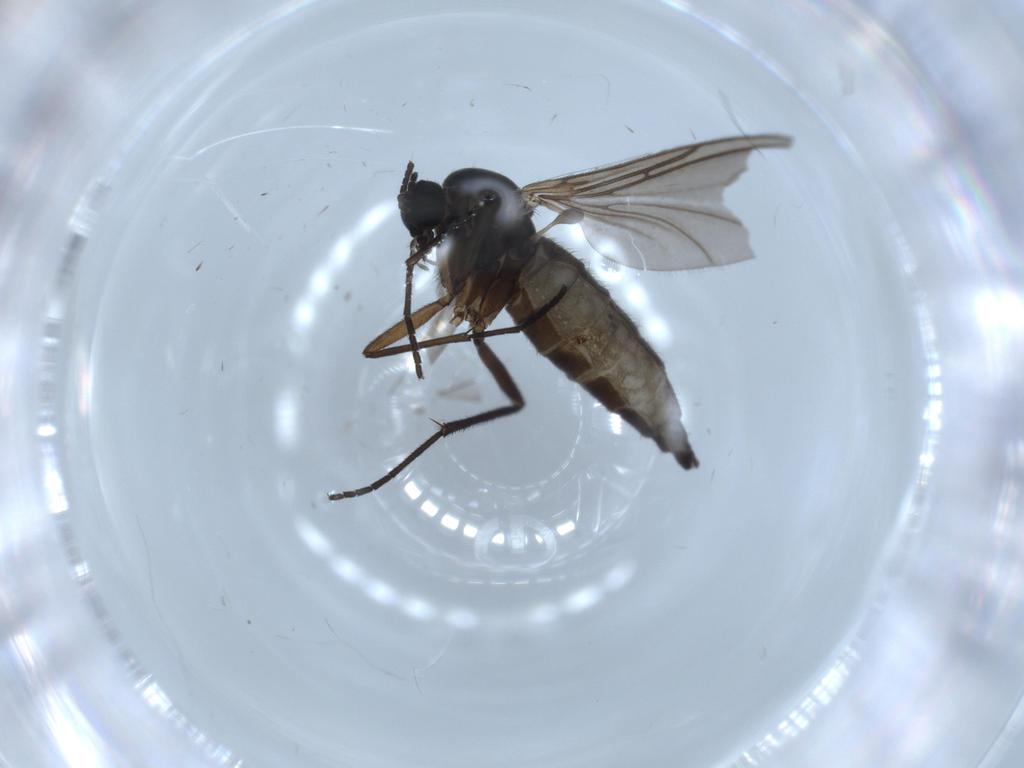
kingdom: Animalia
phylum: Arthropoda
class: Insecta
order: Diptera
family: Sciaridae
